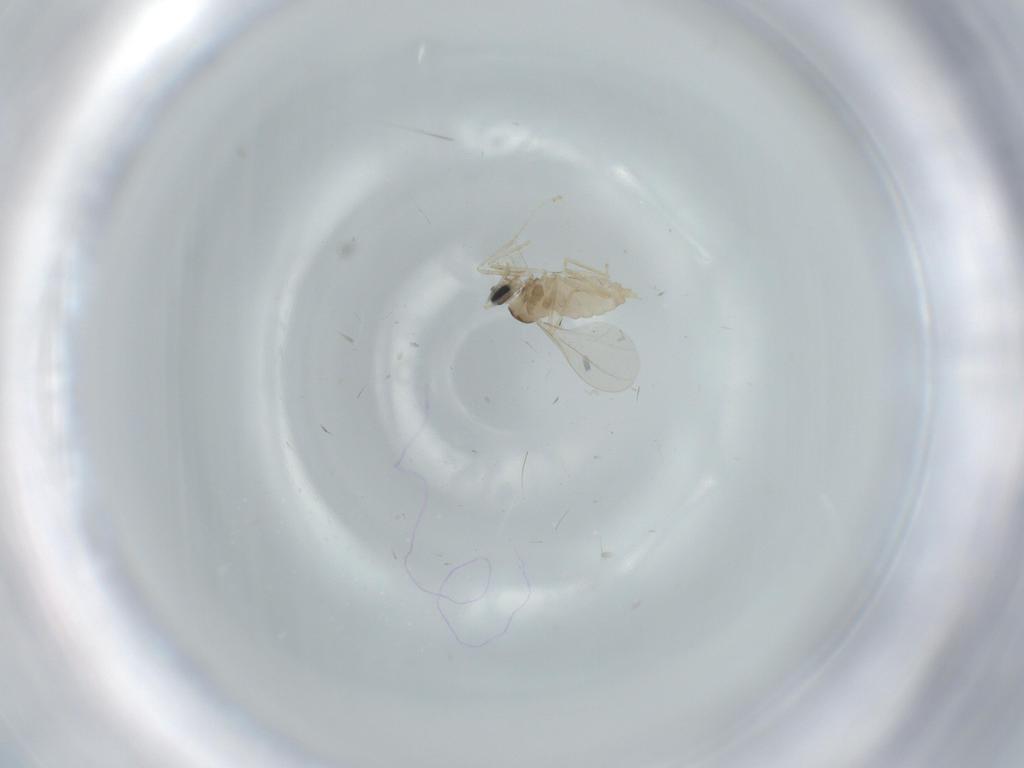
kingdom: Animalia
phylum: Arthropoda
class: Insecta
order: Diptera
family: Cecidomyiidae
